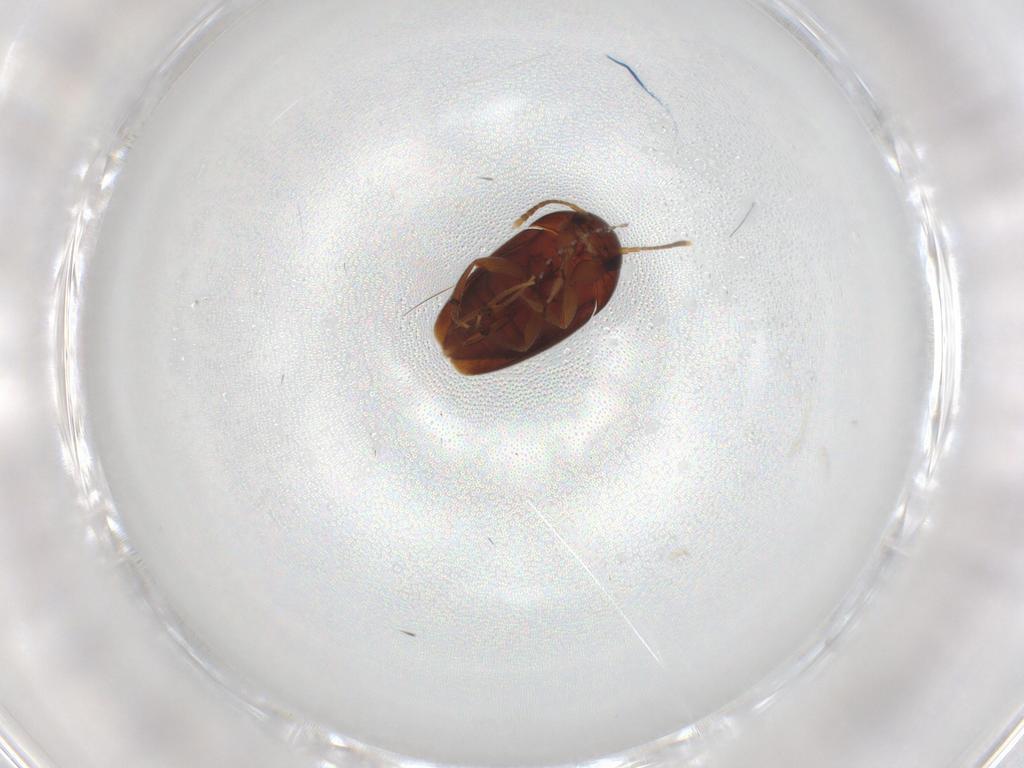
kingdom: Animalia
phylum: Arthropoda
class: Insecta
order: Coleoptera
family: Leiodidae
